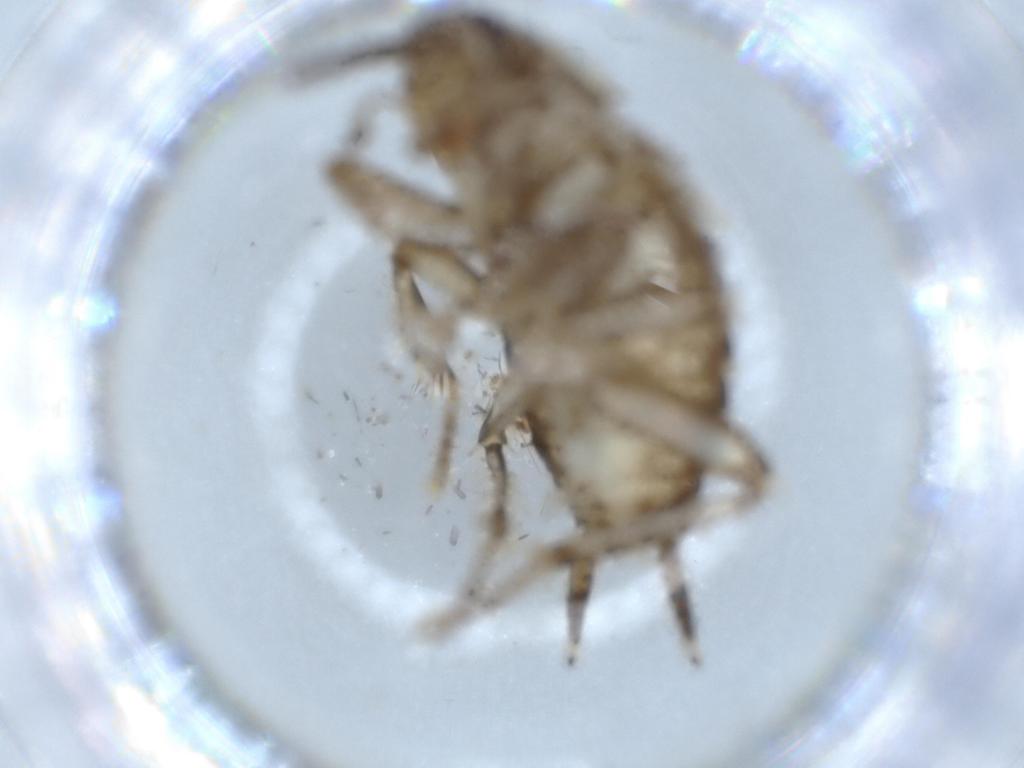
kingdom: Animalia
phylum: Arthropoda
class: Insecta
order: Blattodea
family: Ectobiidae
